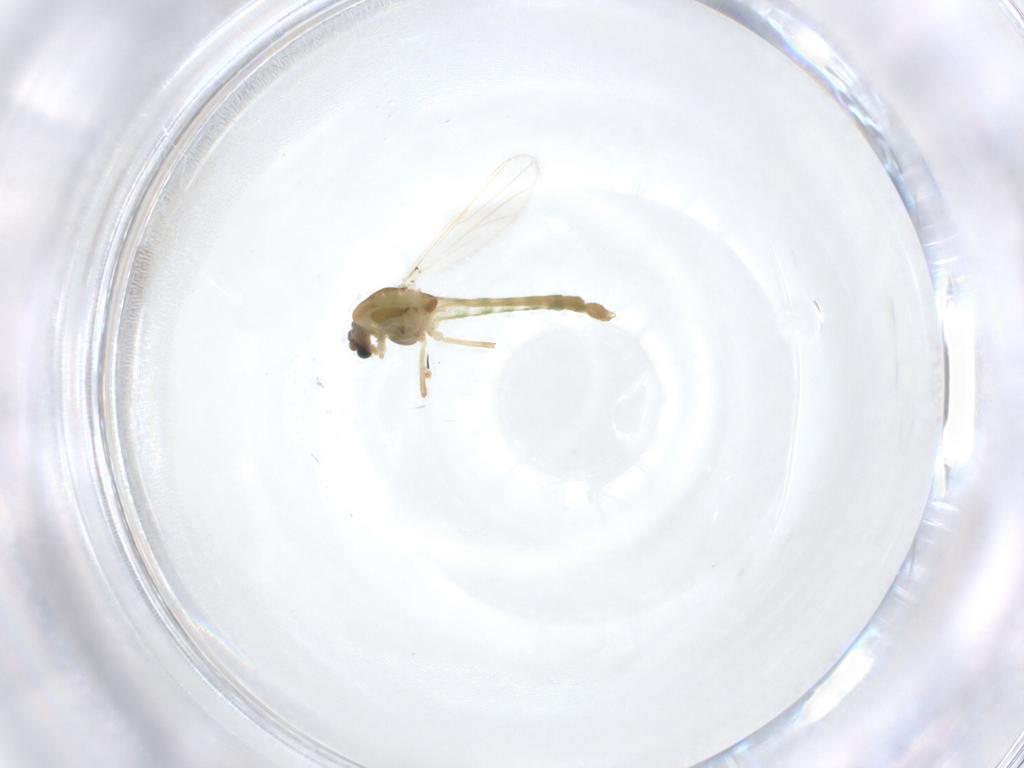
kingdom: Animalia
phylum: Arthropoda
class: Insecta
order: Diptera
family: Chironomidae
